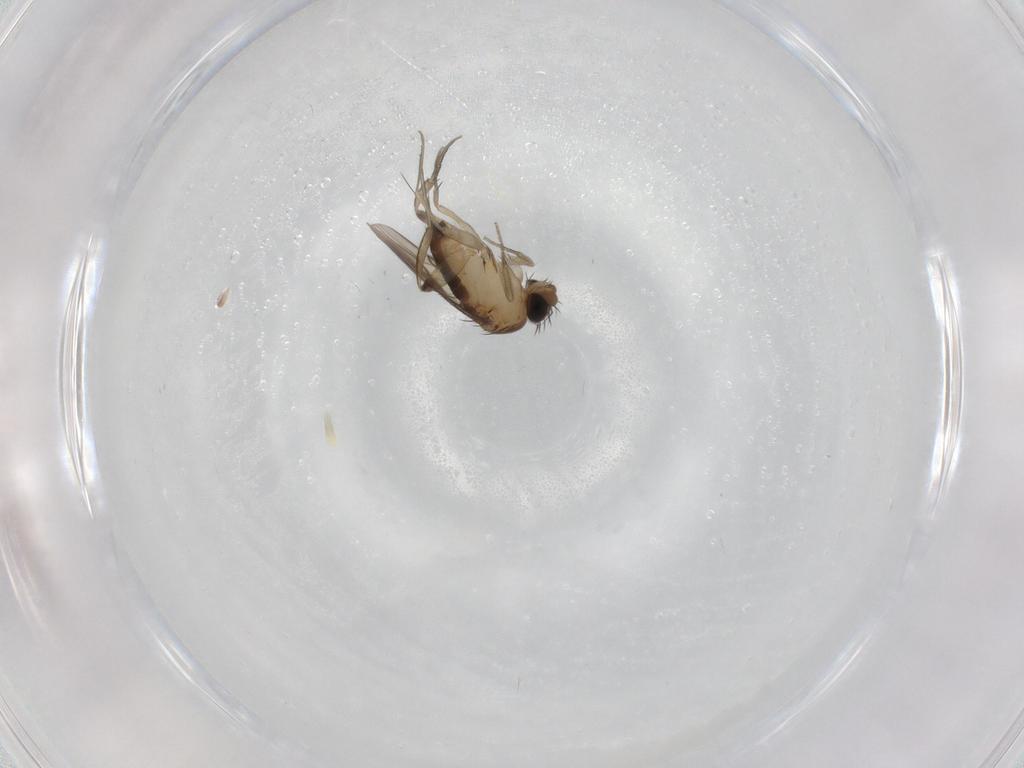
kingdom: Animalia
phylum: Arthropoda
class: Insecta
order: Diptera
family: Phoridae
